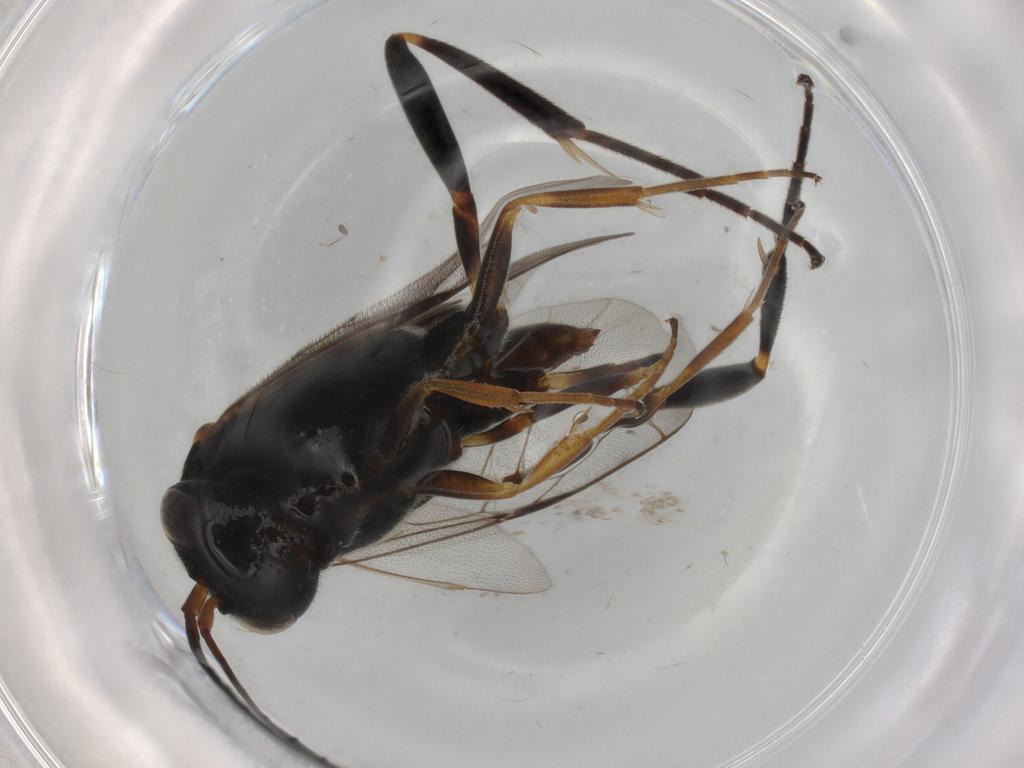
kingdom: Animalia
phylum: Arthropoda
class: Insecta
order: Hymenoptera
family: Evaniidae
